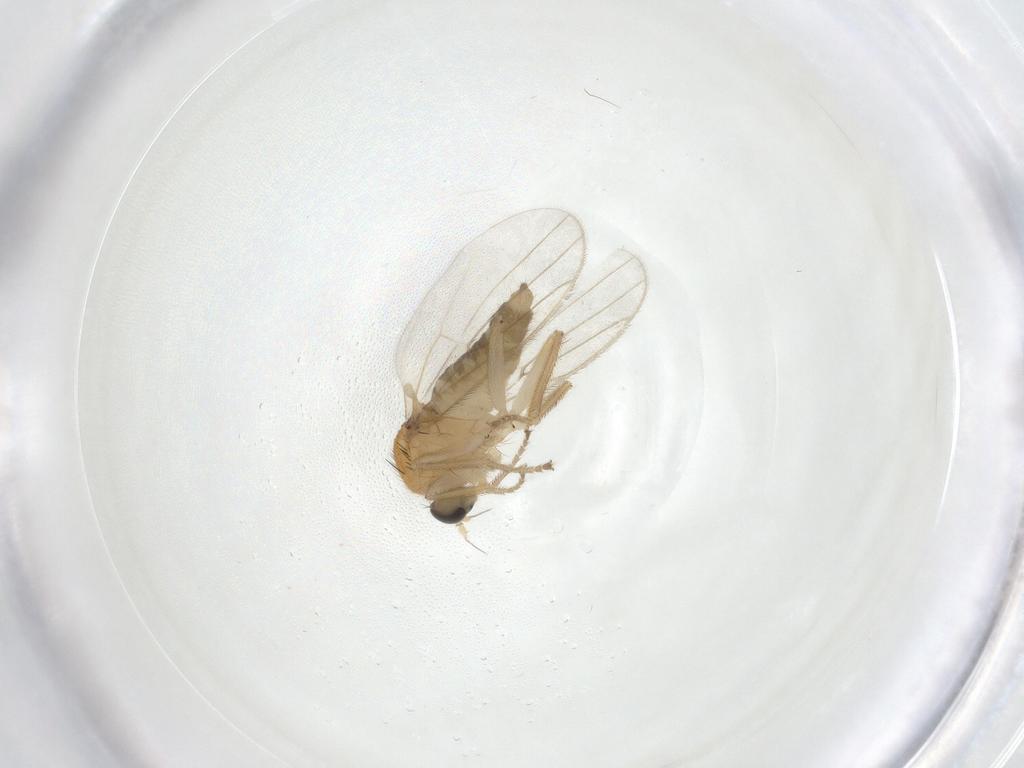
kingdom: Animalia
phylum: Arthropoda
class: Insecta
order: Diptera
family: Hybotidae
